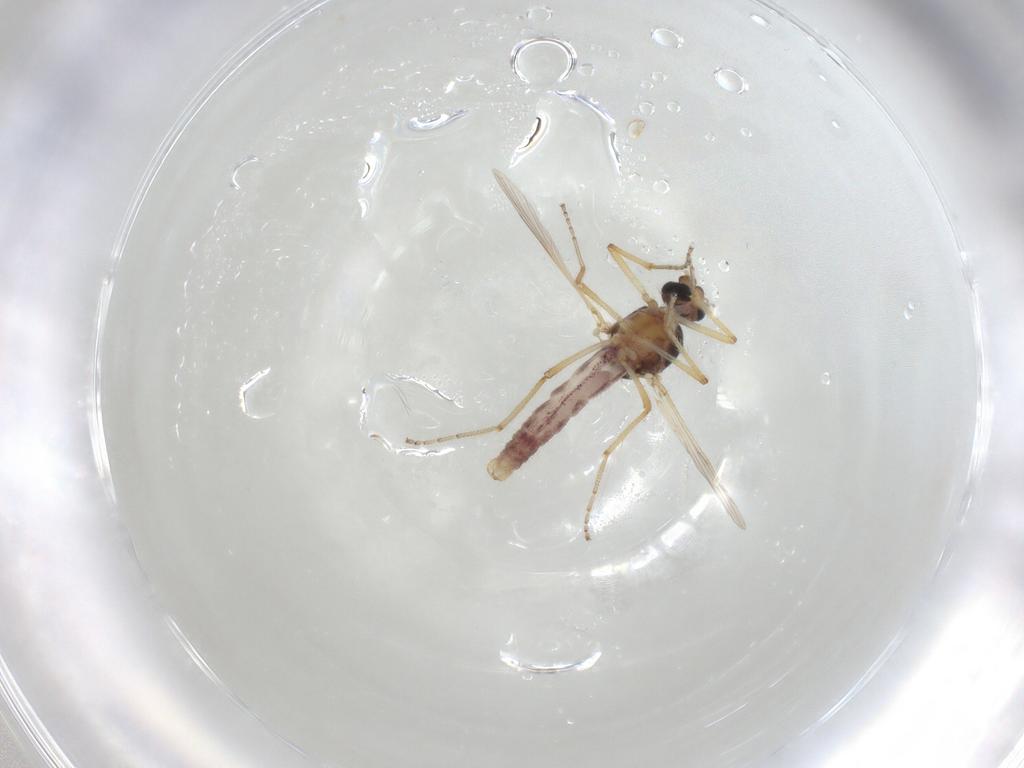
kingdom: Animalia
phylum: Arthropoda
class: Insecta
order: Diptera
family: Ceratopogonidae
